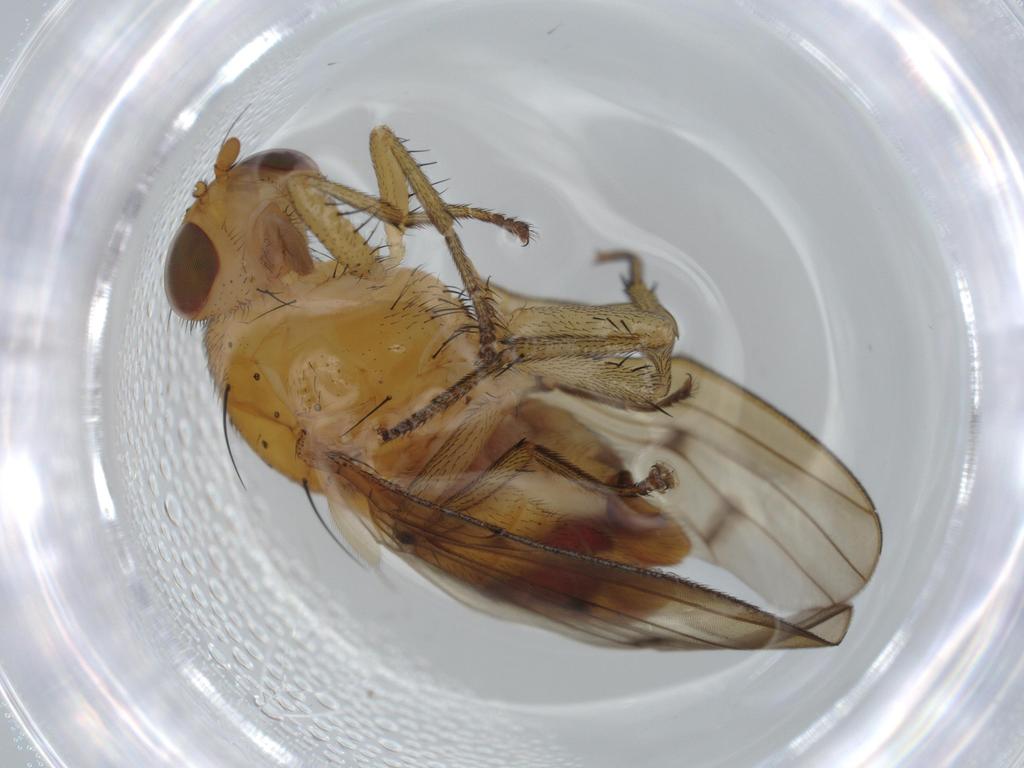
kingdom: Animalia
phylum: Arthropoda
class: Insecta
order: Diptera
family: Cecidomyiidae
